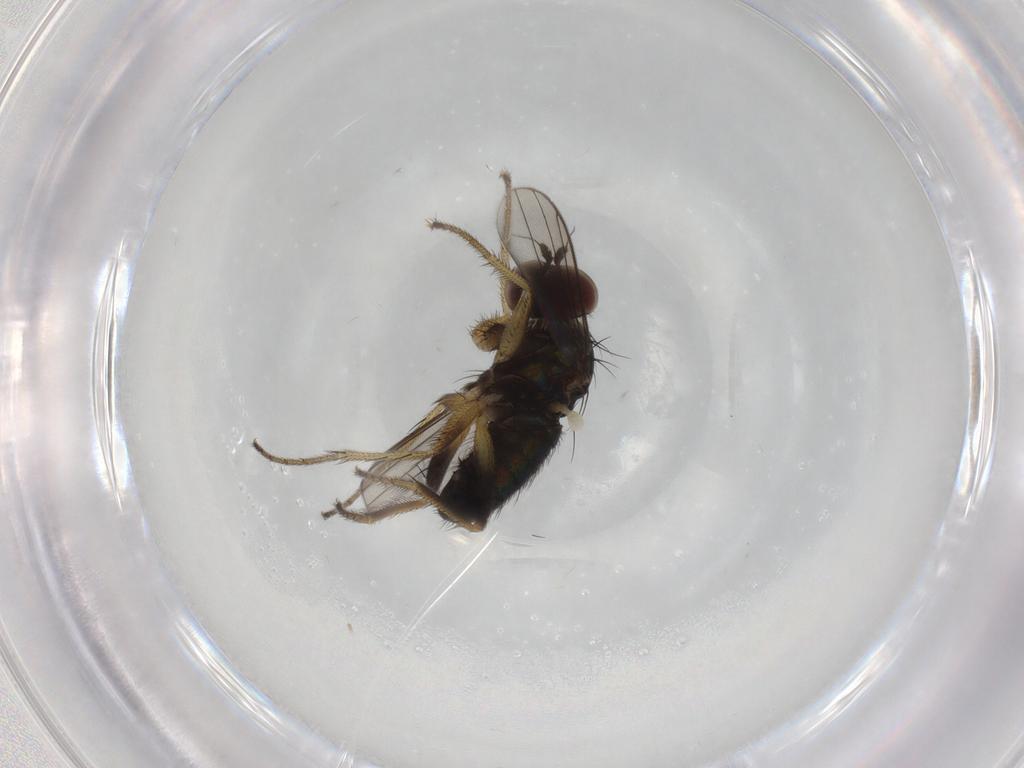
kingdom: Animalia
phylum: Arthropoda
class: Insecta
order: Diptera
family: Dolichopodidae
